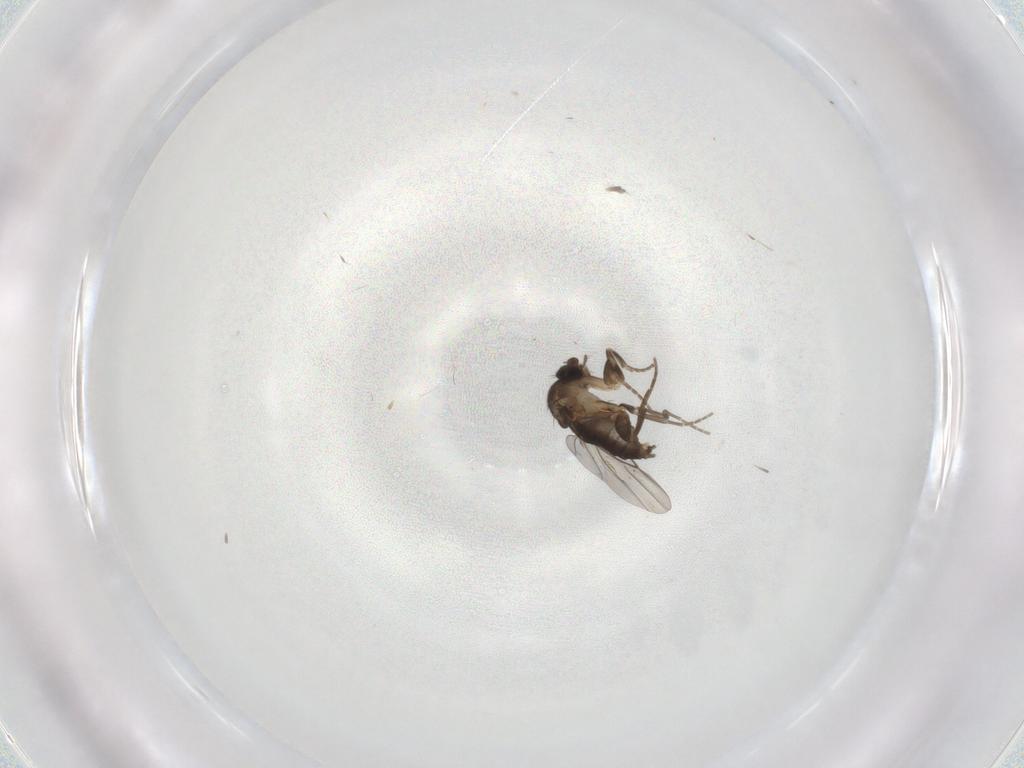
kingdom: Animalia
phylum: Arthropoda
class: Insecta
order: Diptera
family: Phoridae
